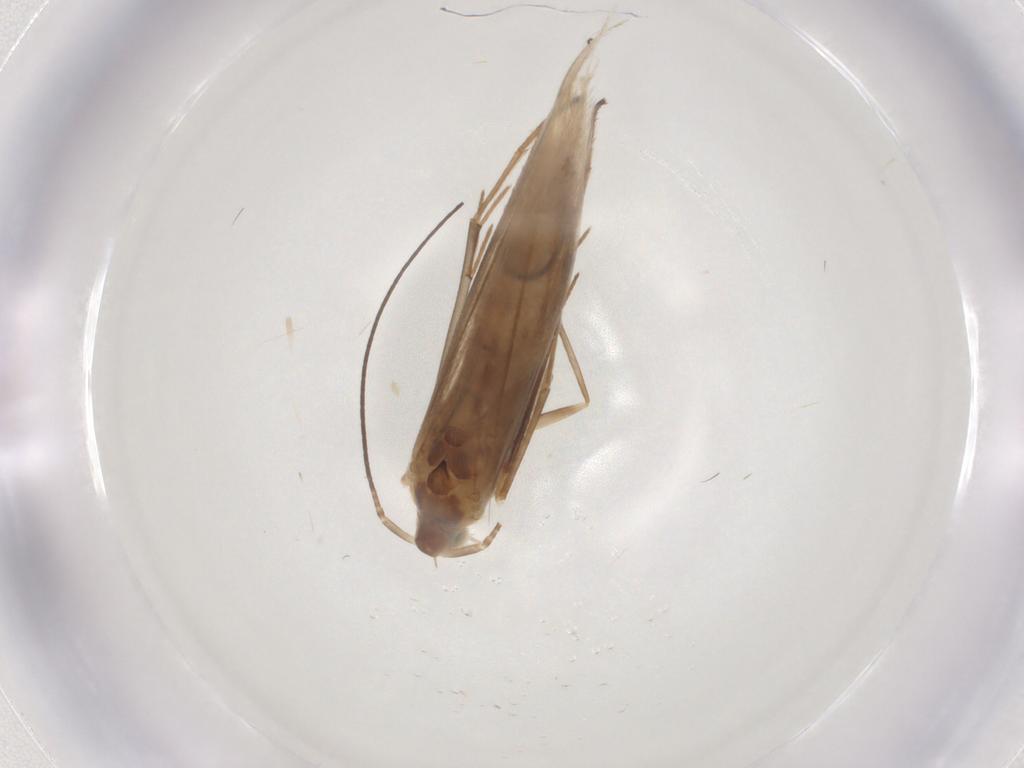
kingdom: Animalia
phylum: Arthropoda
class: Insecta
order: Lepidoptera
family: Coleophoridae
